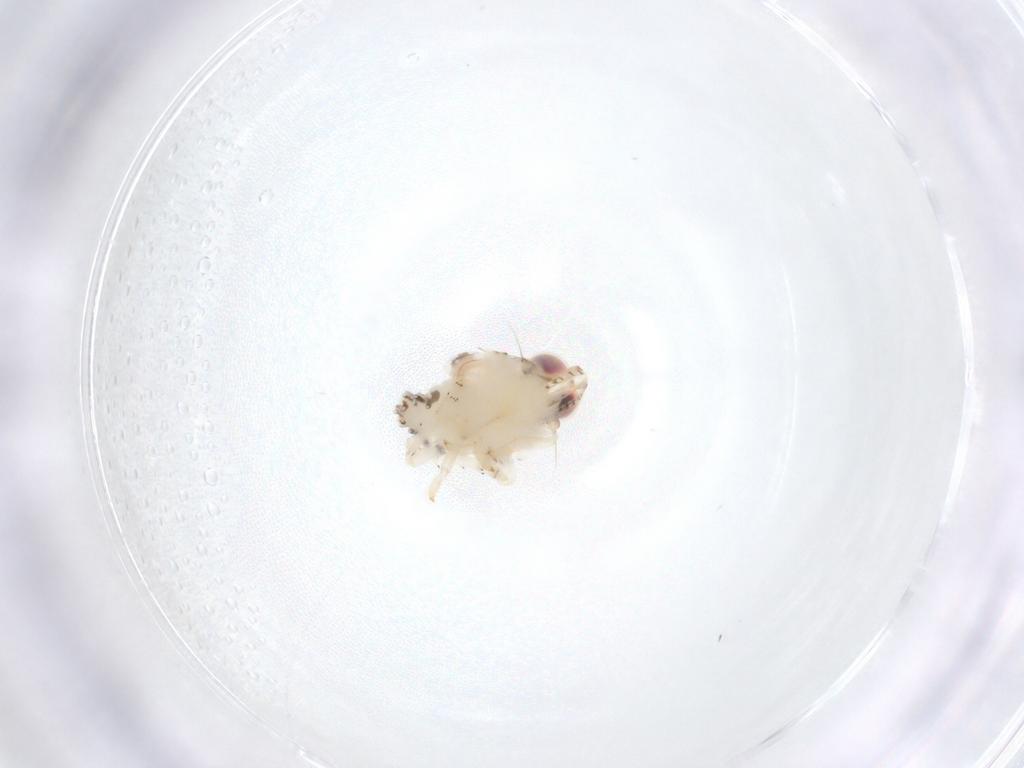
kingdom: Animalia
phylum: Arthropoda
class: Insecta
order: Hemiptera
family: Nogodinidae
